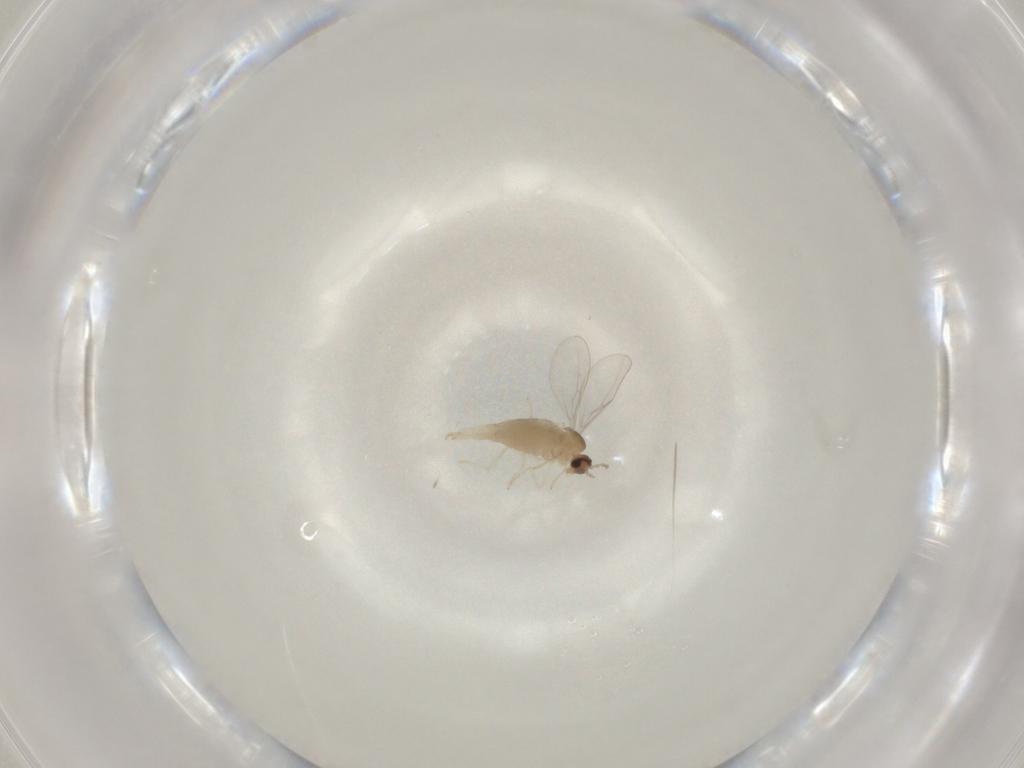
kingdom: Animalia
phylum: Arthropoda
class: Insecta
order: Diptera
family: Cecidomyiidae
